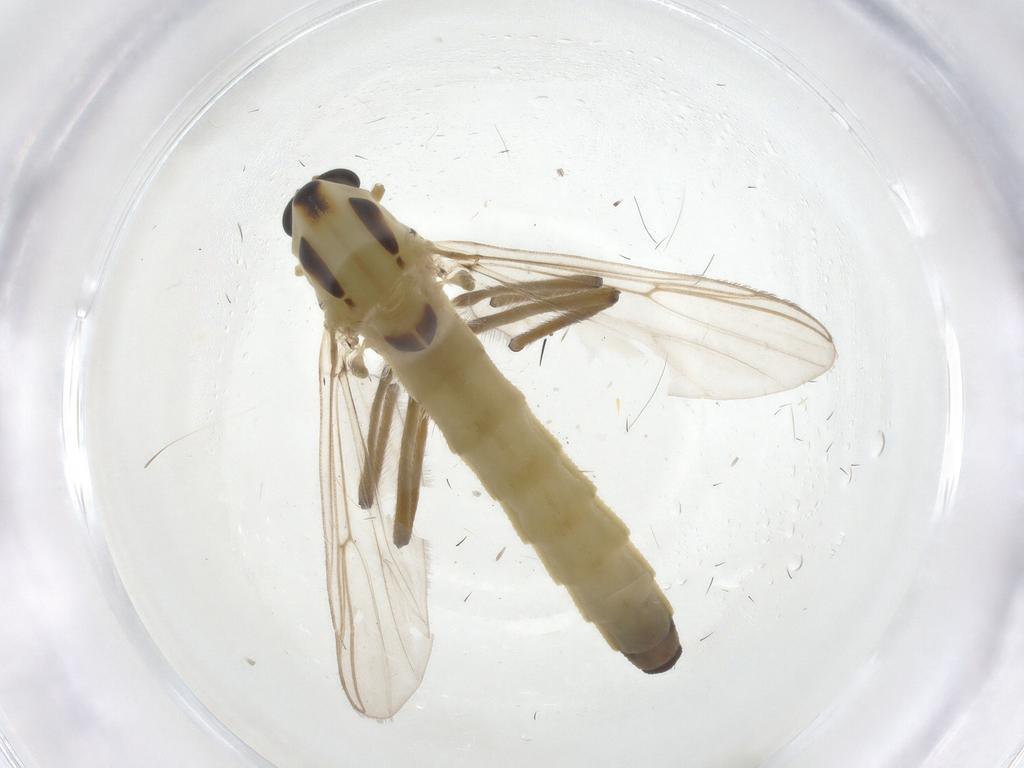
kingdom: Animalia
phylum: Arthropoda
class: Insecta
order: Diptera
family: Chironomidae
